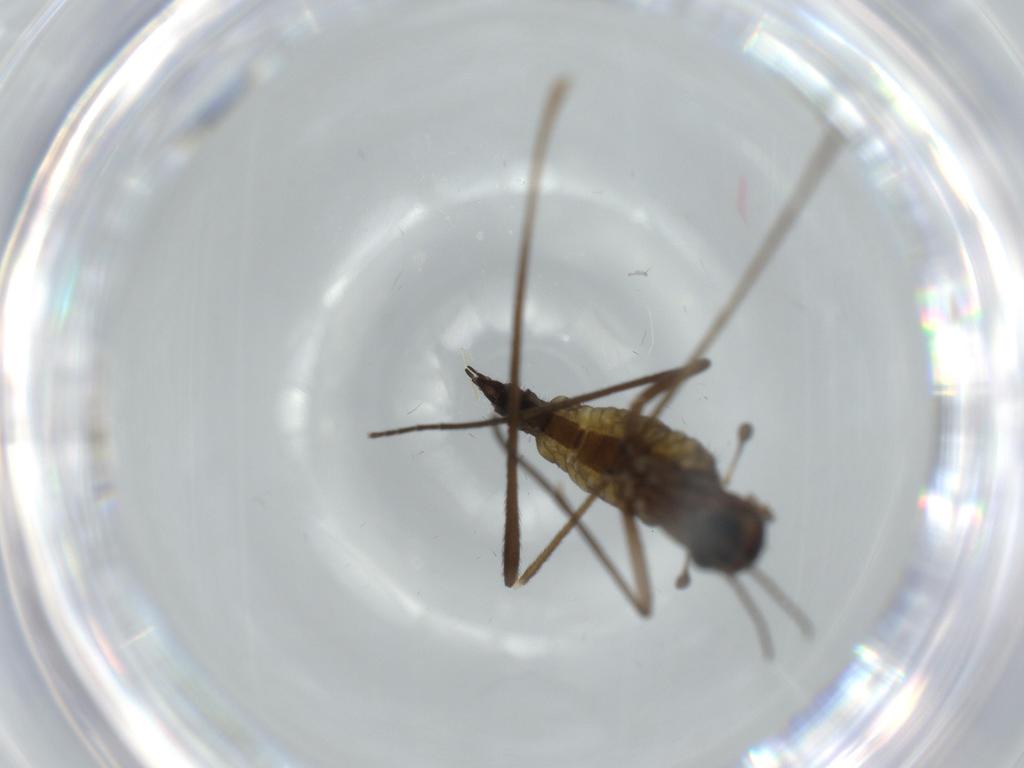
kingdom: Animalia
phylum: Arthropoda
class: Insecta
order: Diptera
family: Sciaridae
